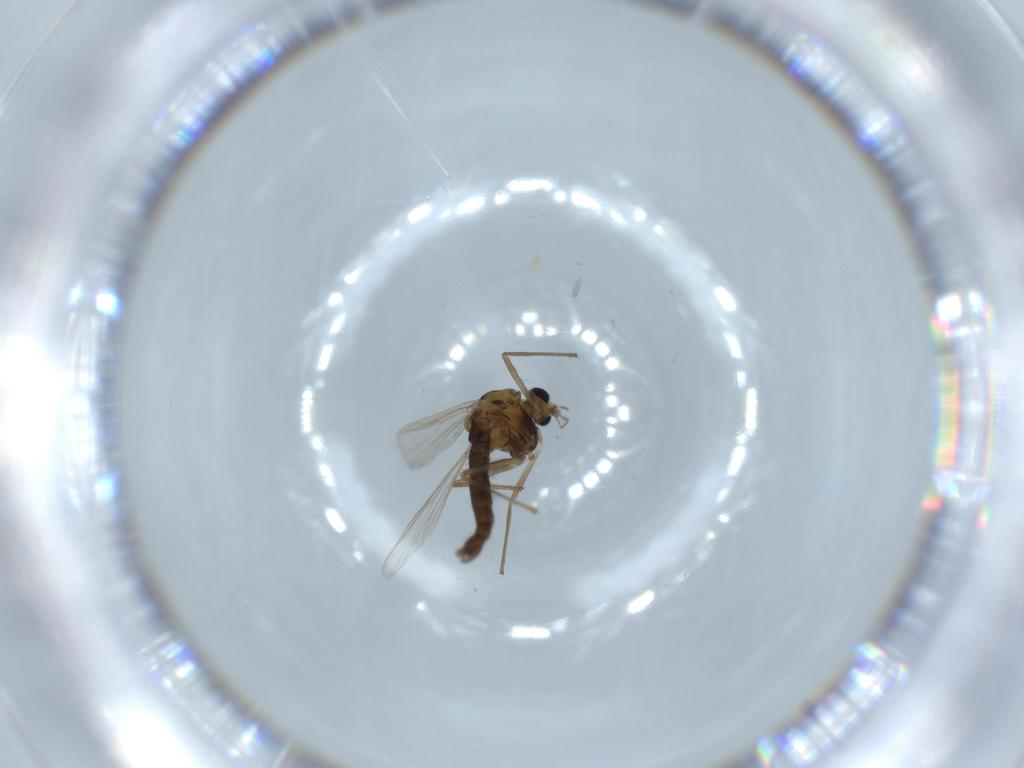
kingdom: Animalia
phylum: Arthropoda
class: Insecta
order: Diptera
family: Chironomidae
